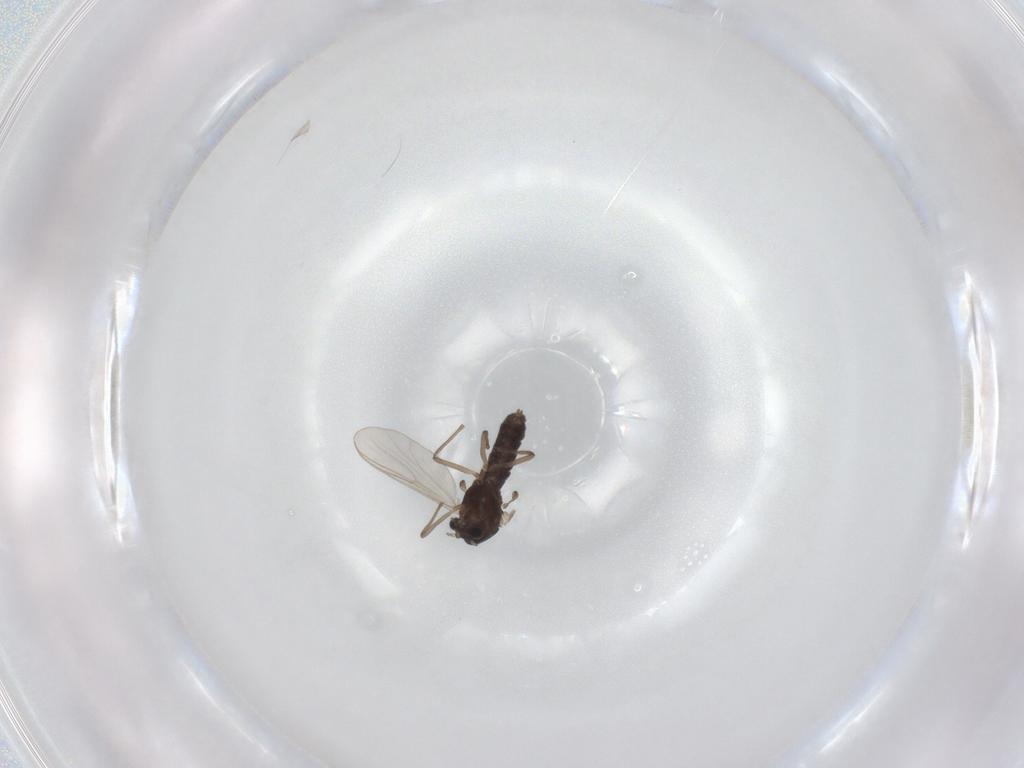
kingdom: Animalia
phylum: Arthropoda
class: Insecta
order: Diptera
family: Chironomidae
